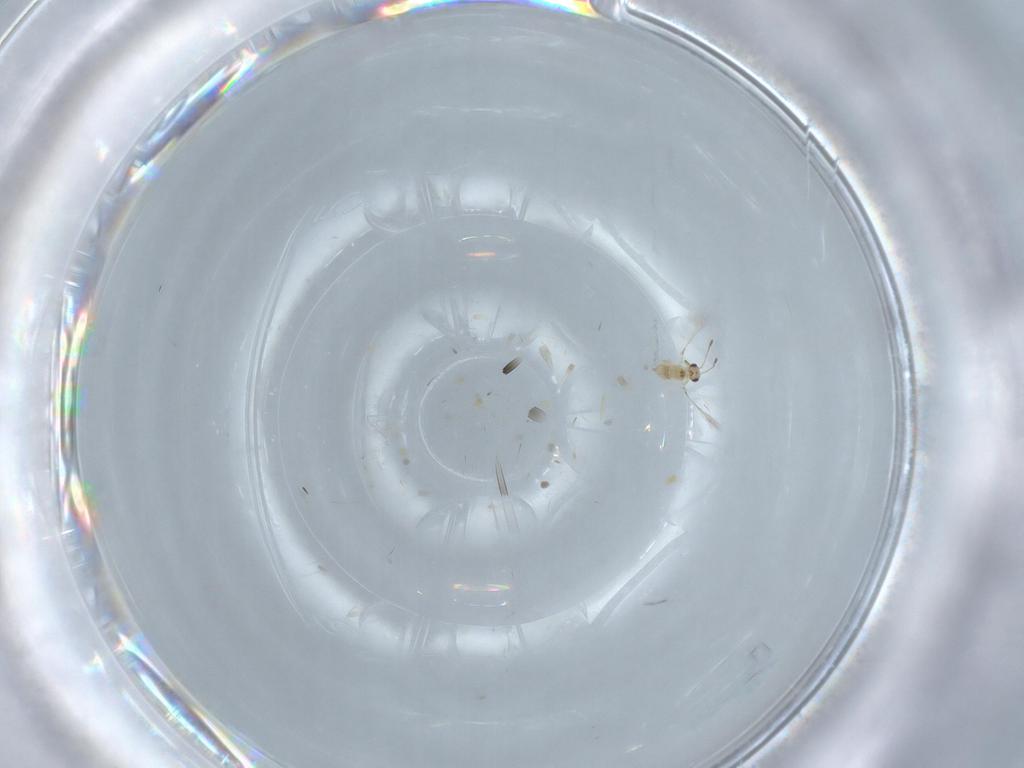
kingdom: Animalia
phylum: Arthropoda
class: Insecta
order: Hymenoptera
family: Mymaridae
